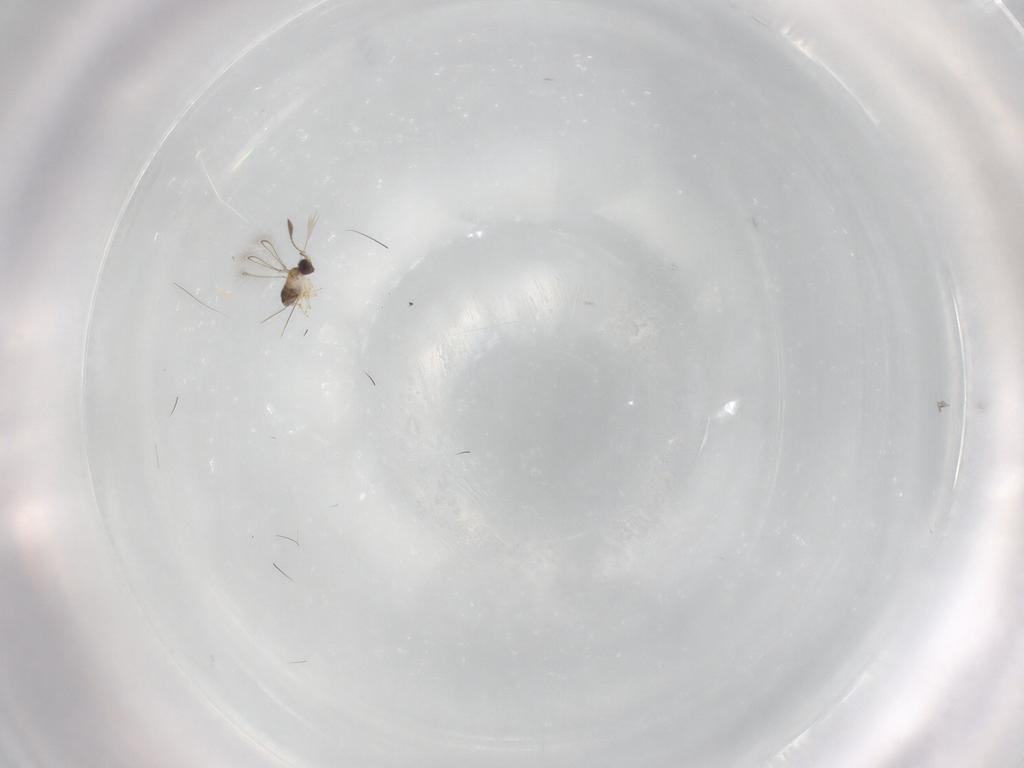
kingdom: Animalia
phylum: Arthropoda
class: Insecta
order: Hymenoptera
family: Mymaridae
